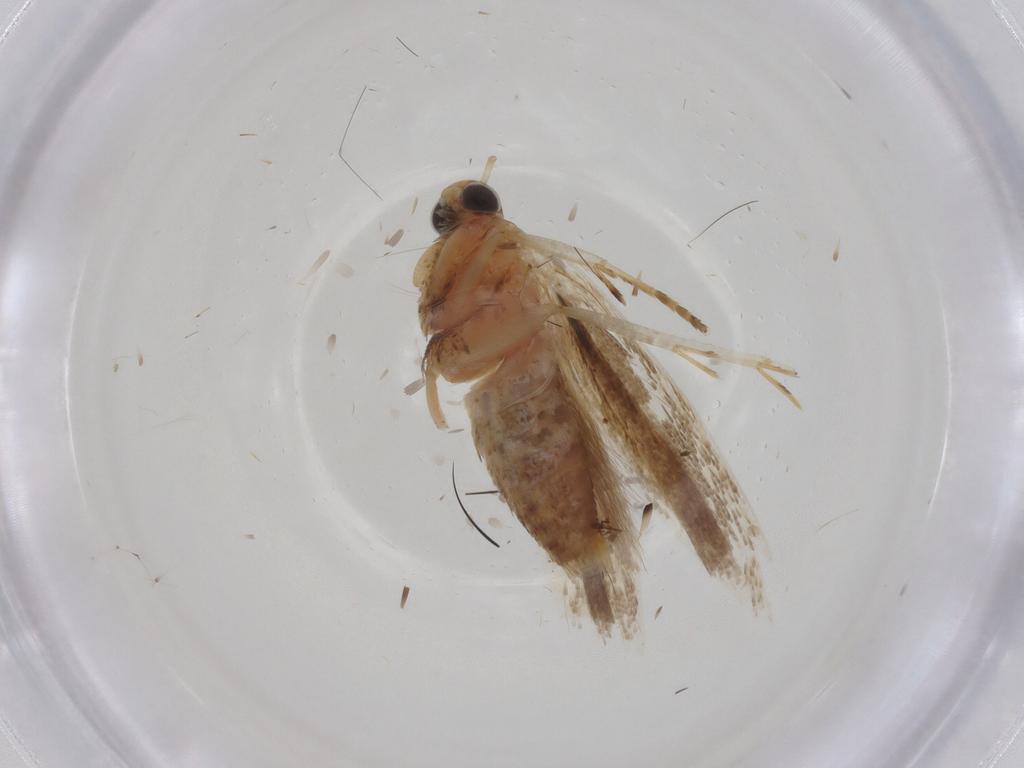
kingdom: Animalia
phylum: Arthropoda
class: Insecta
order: Lepidoptera
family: Gelechiidae
